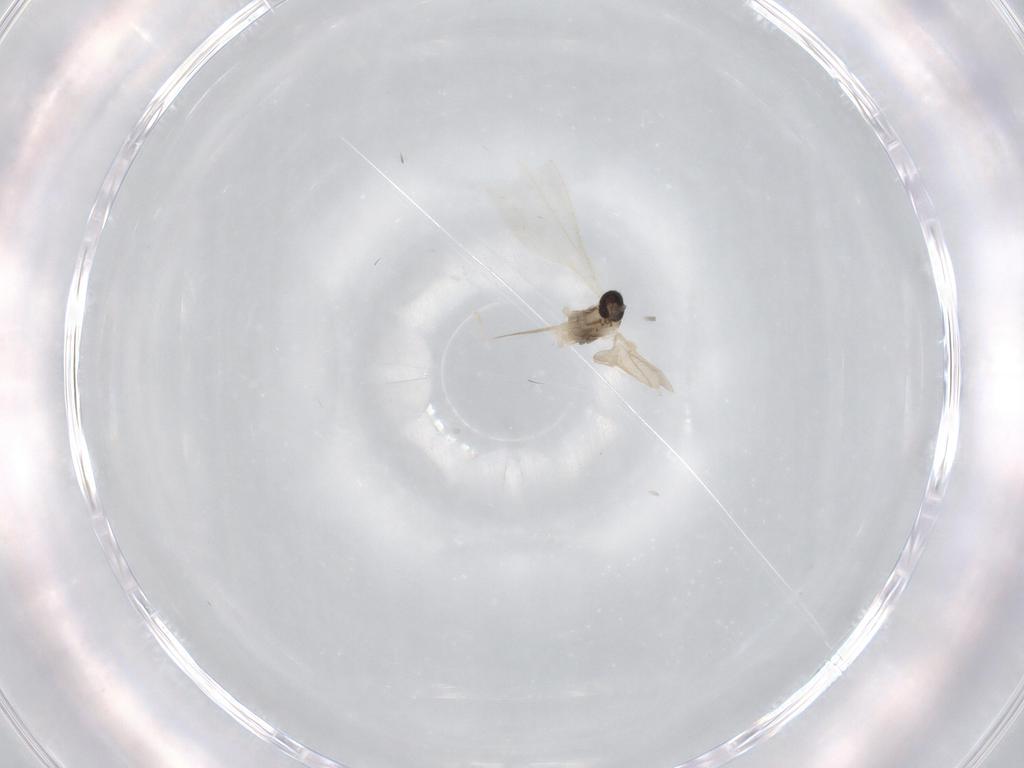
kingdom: Animalia
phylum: Arthropoda
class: Insecta
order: Diptera
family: Cecidomyiidae
